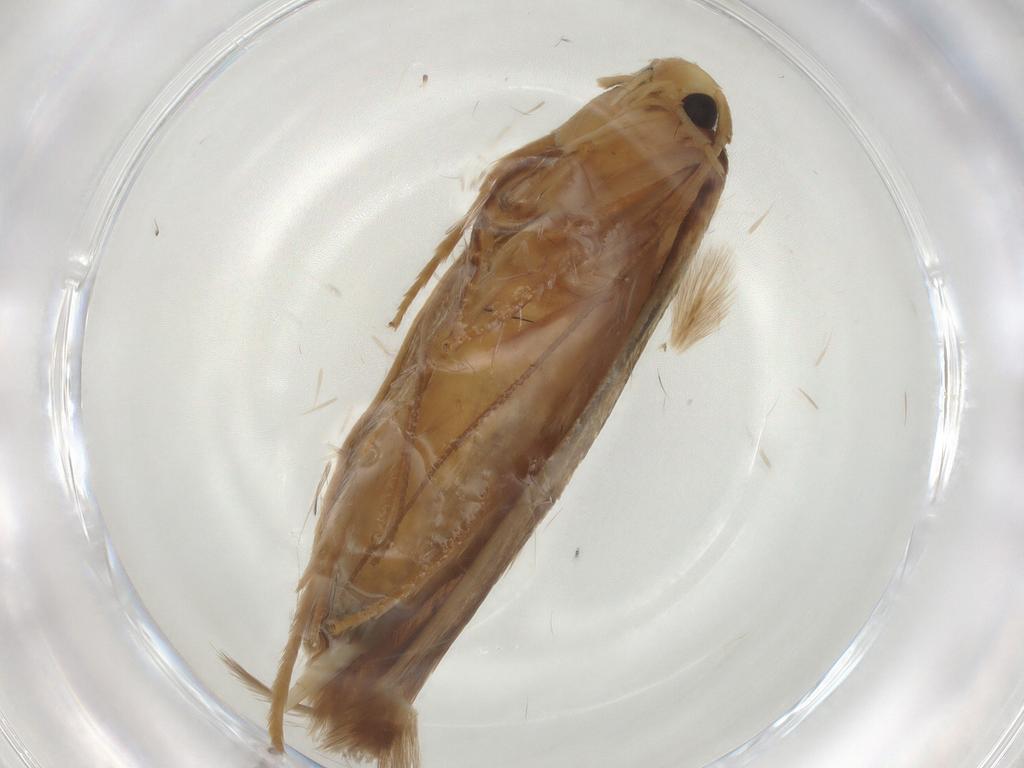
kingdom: Animalia
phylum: Arthropoda
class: Insecta
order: Lepidoptera
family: Tineidae
